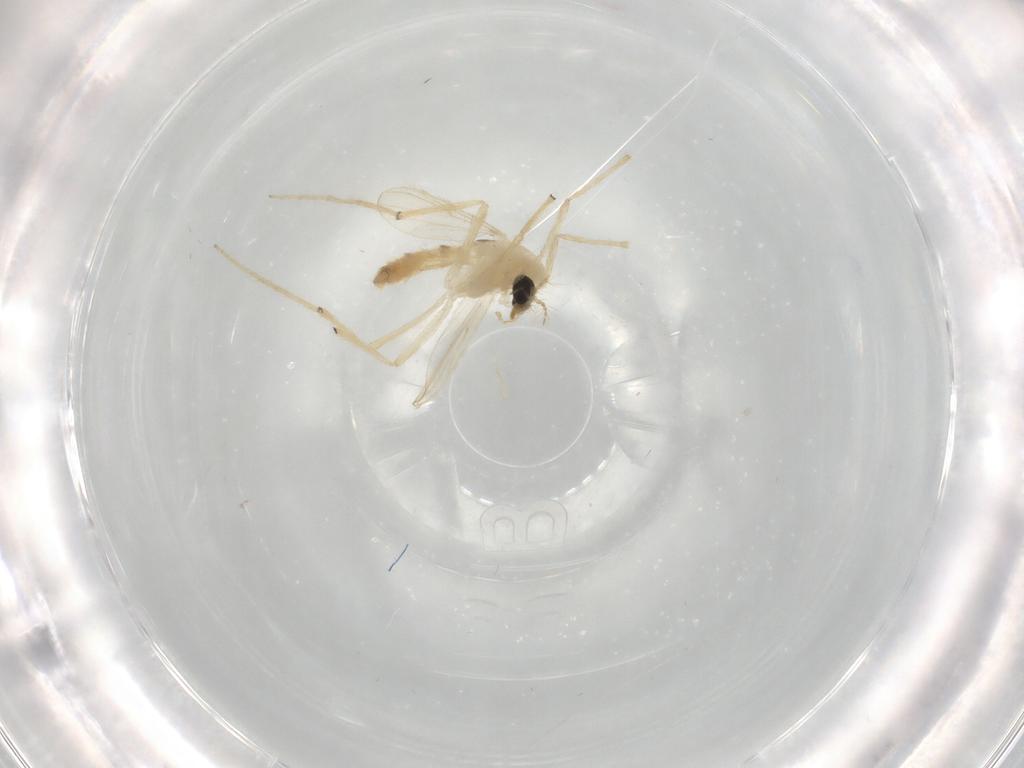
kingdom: Animalia
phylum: Arthropoda
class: Insecta
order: Diptera
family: Chironomidae
